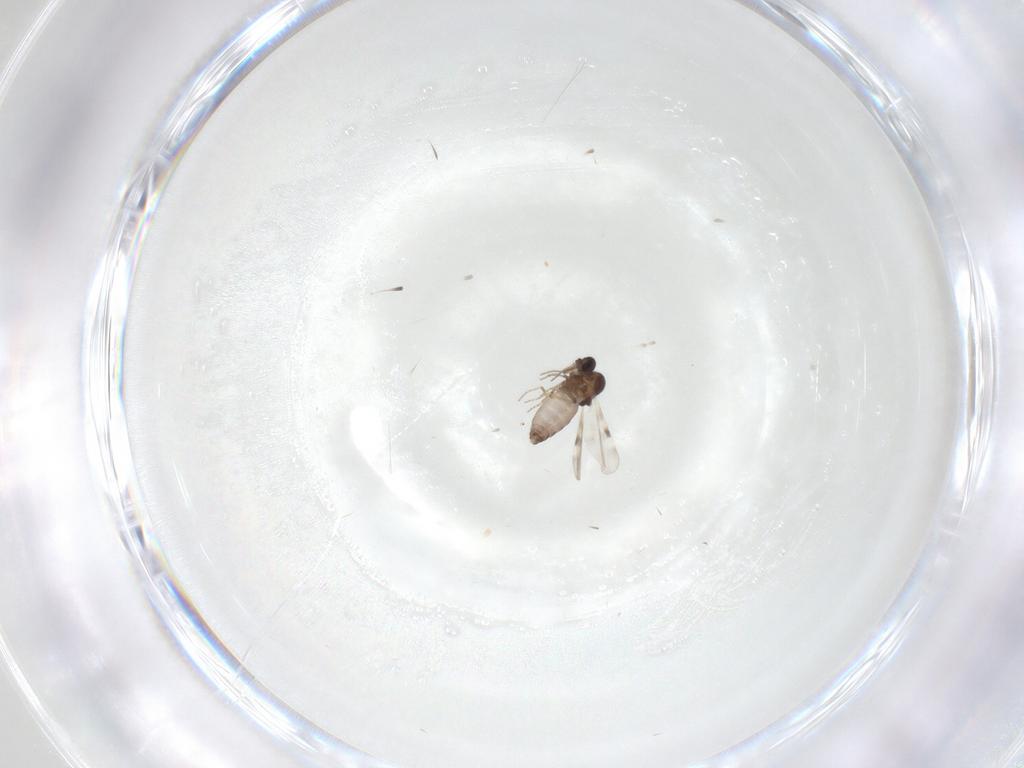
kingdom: Animalia
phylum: Arthropoda
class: Insecta
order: Diptera
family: Phoridae
